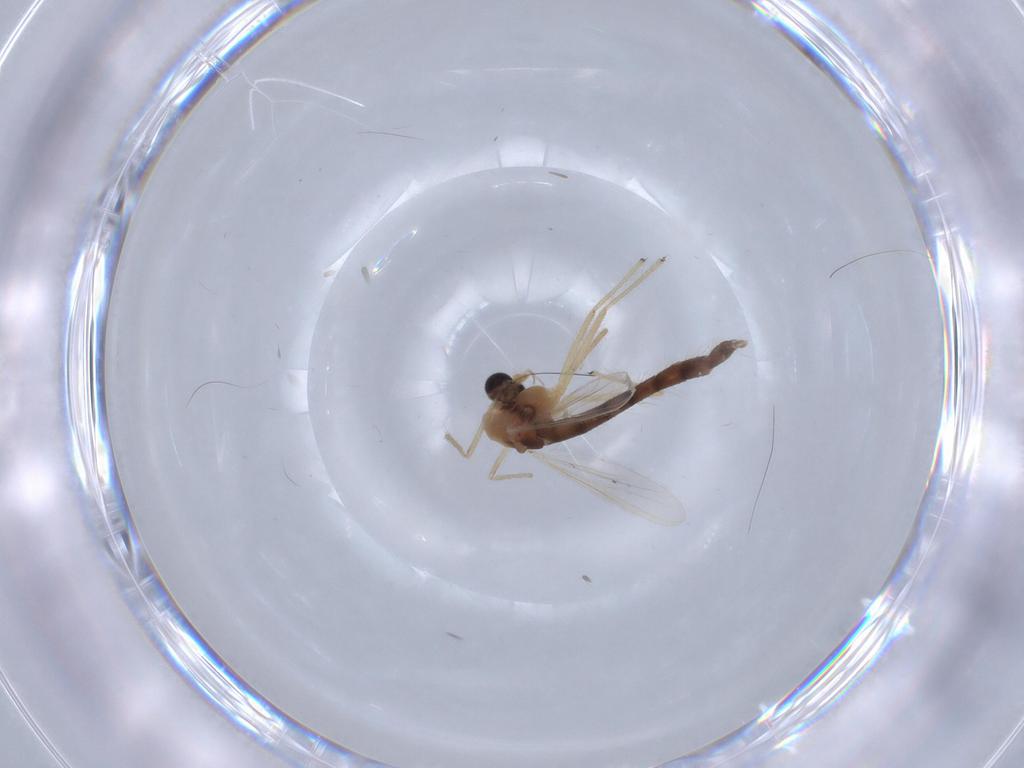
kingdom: Animalia
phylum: Arthropoda
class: Insecta
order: Diptera
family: Chironomidae
